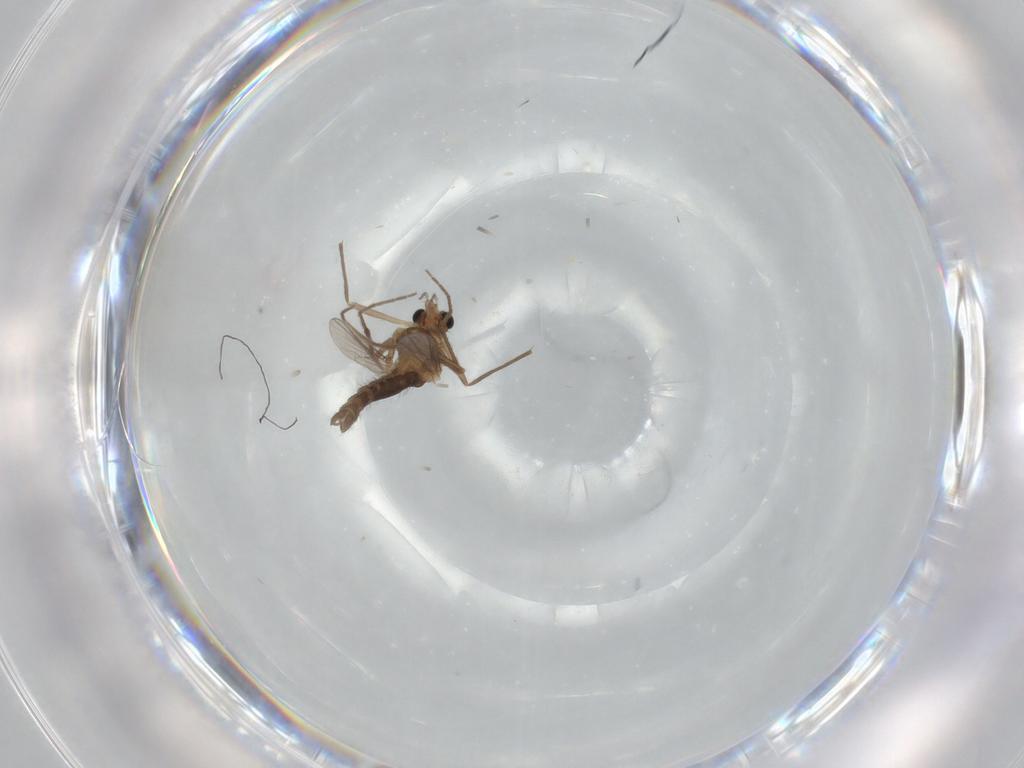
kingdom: Animalia
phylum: Arthropoda
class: Insecta
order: Diptera
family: Chironomidae
